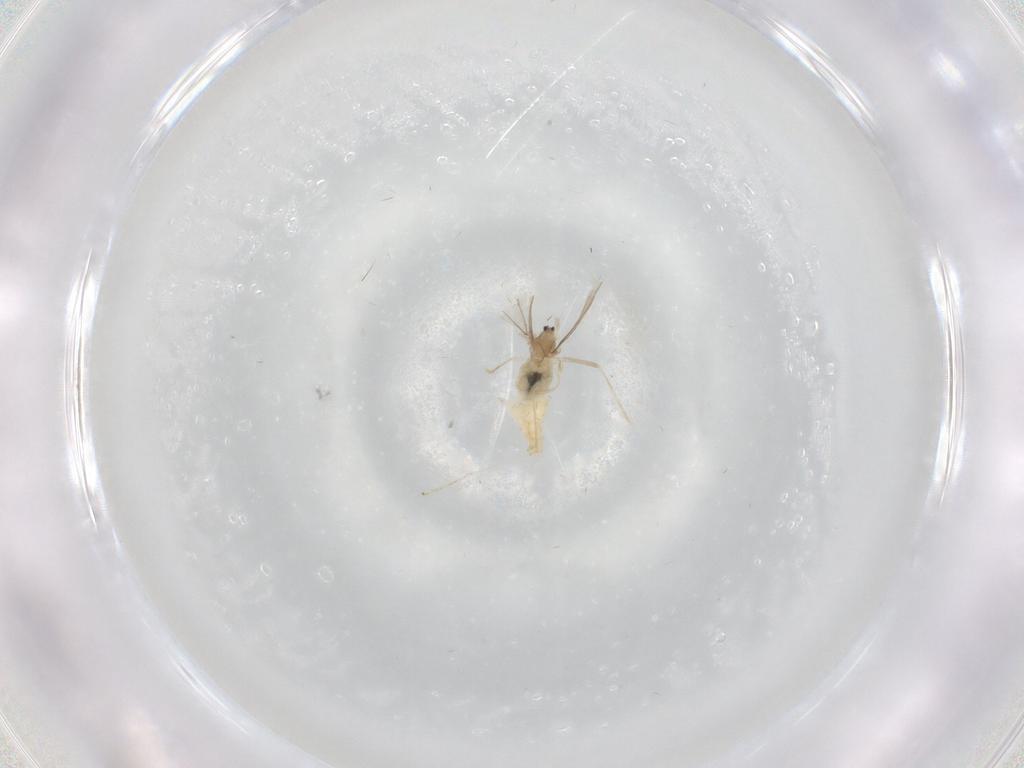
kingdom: Animalia
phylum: Arthropoda
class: Insecta
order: Diptera
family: Cecidomyiidae
